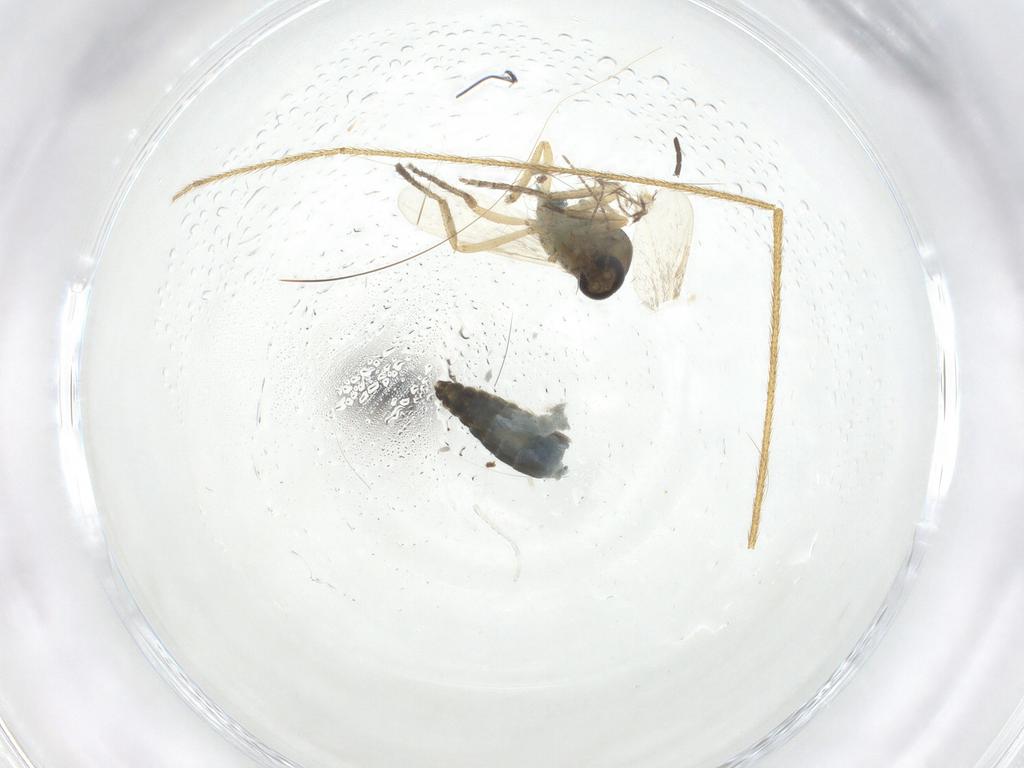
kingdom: Animalia
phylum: Arthropoda
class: Insecta
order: Diptera
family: Ceratopogonidae
